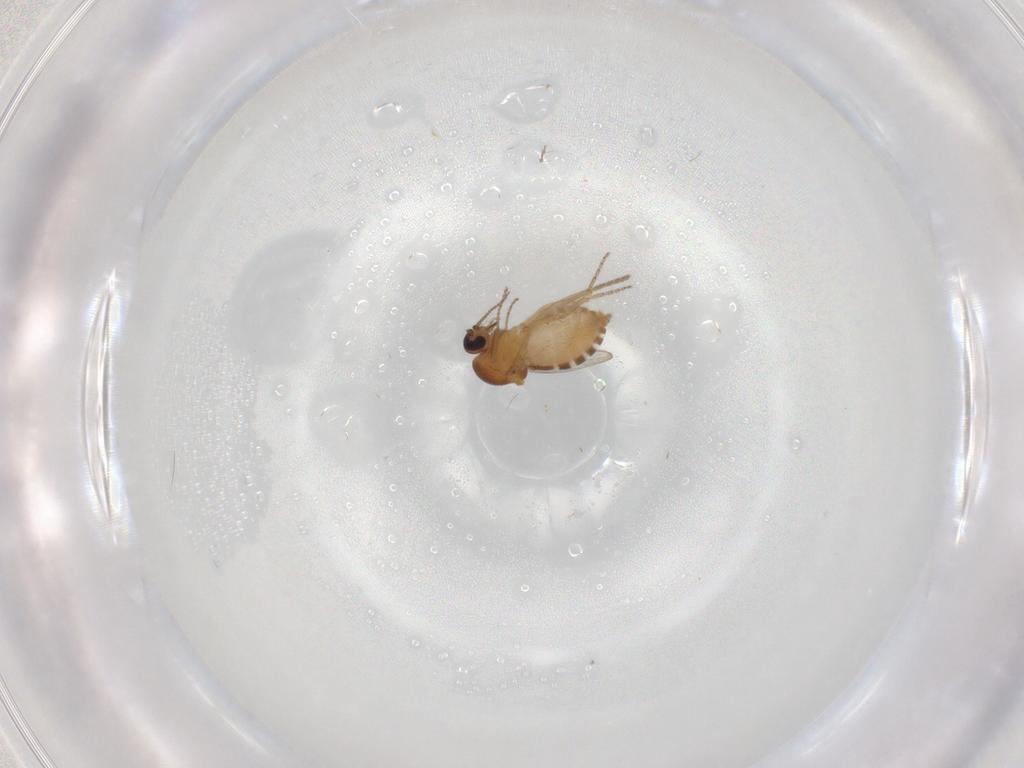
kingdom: Animalia
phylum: Arthropoda
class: Insecta
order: Diptera
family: Ceratopogonidae
